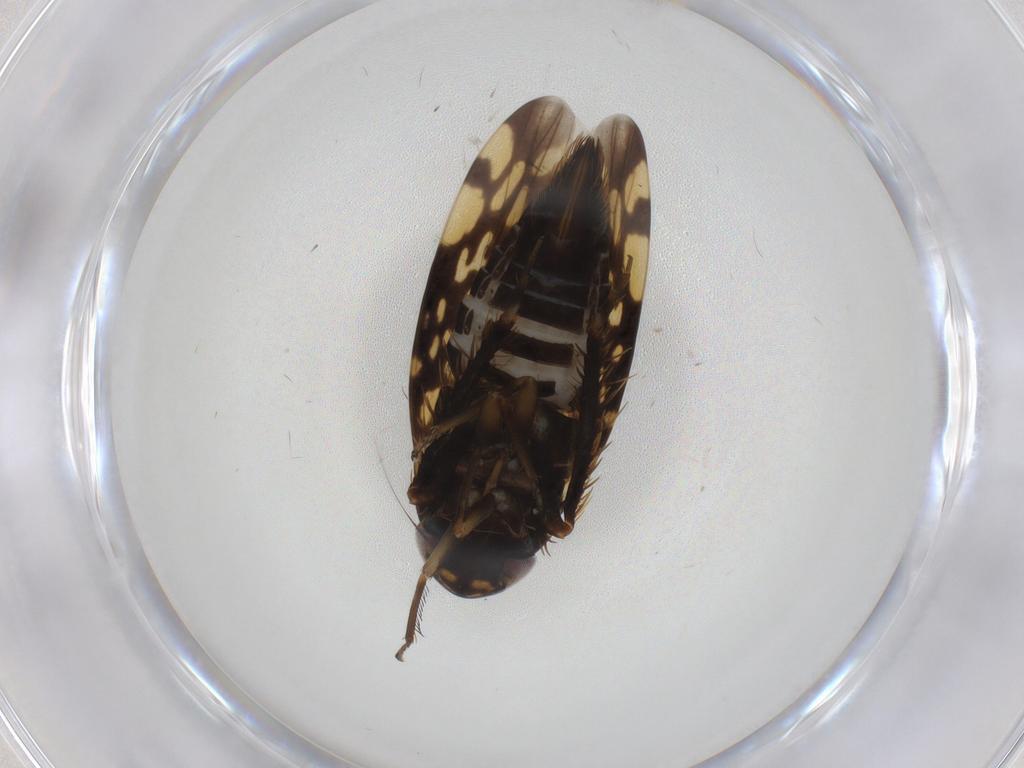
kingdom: Animalia
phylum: Arthropoda
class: Insecta
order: Hemiptera
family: Cicadellidae
